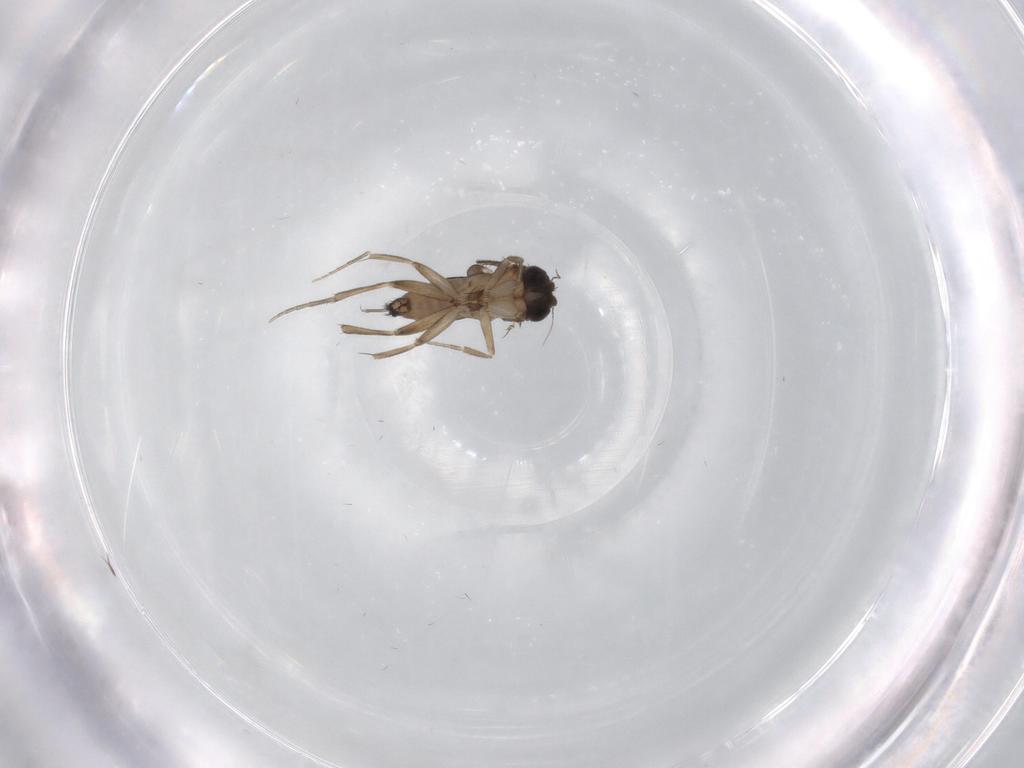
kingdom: Animalia
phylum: Arthropoda
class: Insecta
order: Diptera
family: Phoridae
